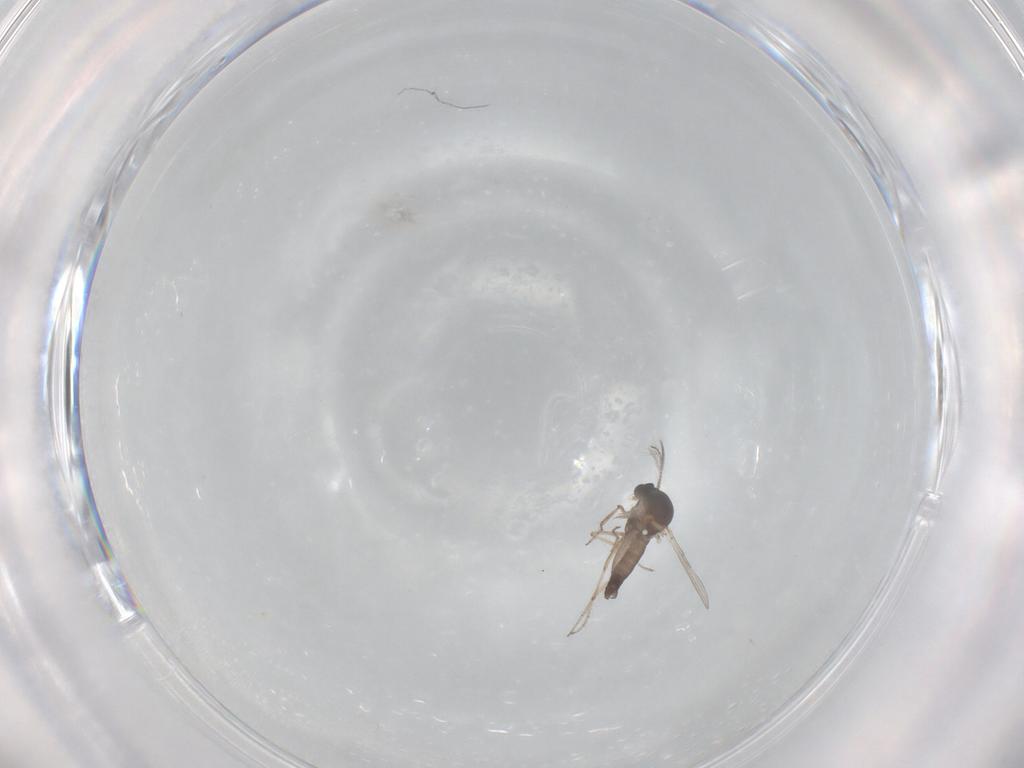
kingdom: Animalia
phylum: Arthropoda
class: Insecta
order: Diptera
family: Ceratopogonidae
